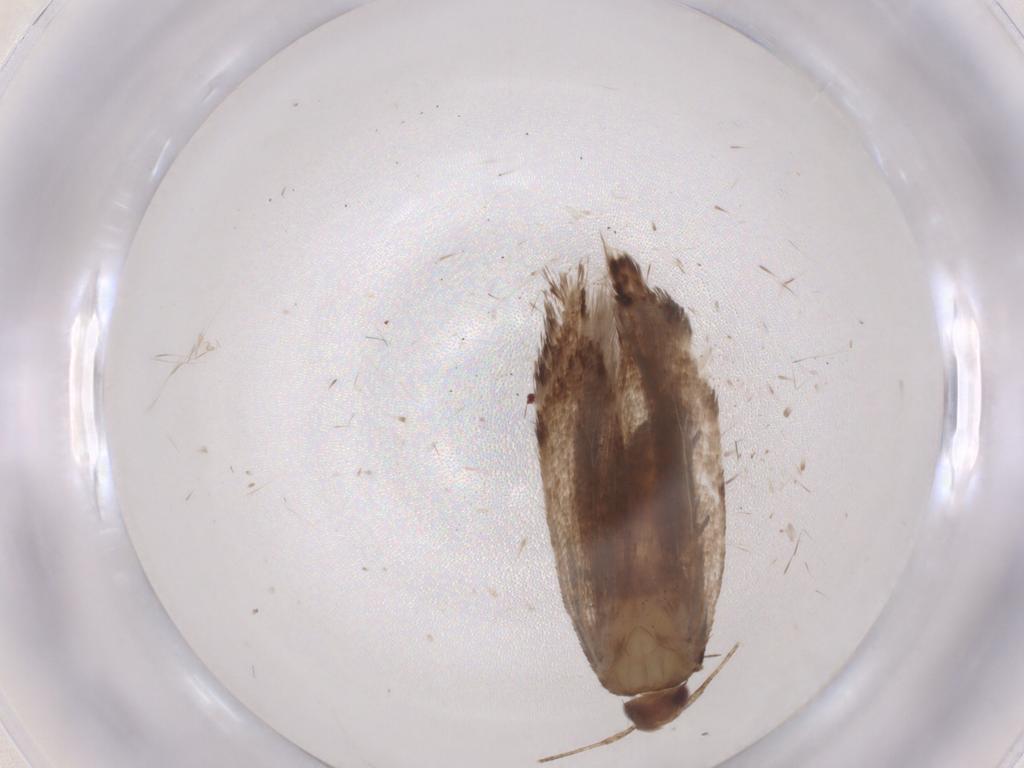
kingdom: Animalia
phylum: Arthropoda
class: Insecta
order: Lepidoptera
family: Gelechiidae
